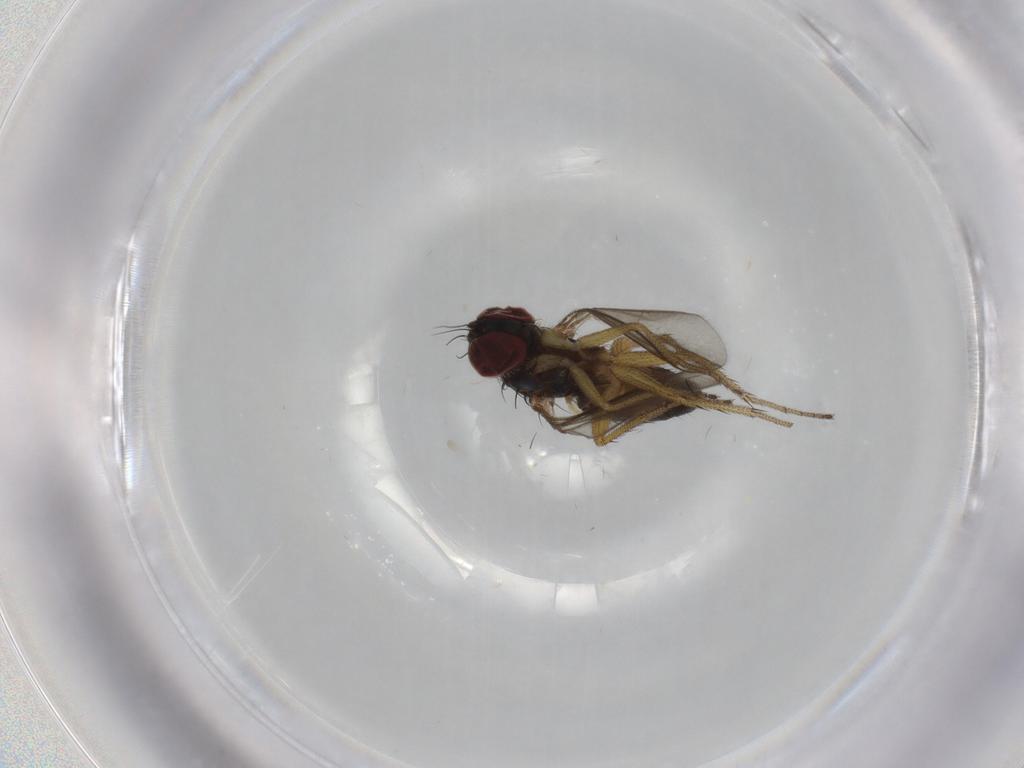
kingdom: Animalia
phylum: Arthropoda
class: Insecta
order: Diptera
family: Dolichopodidae
